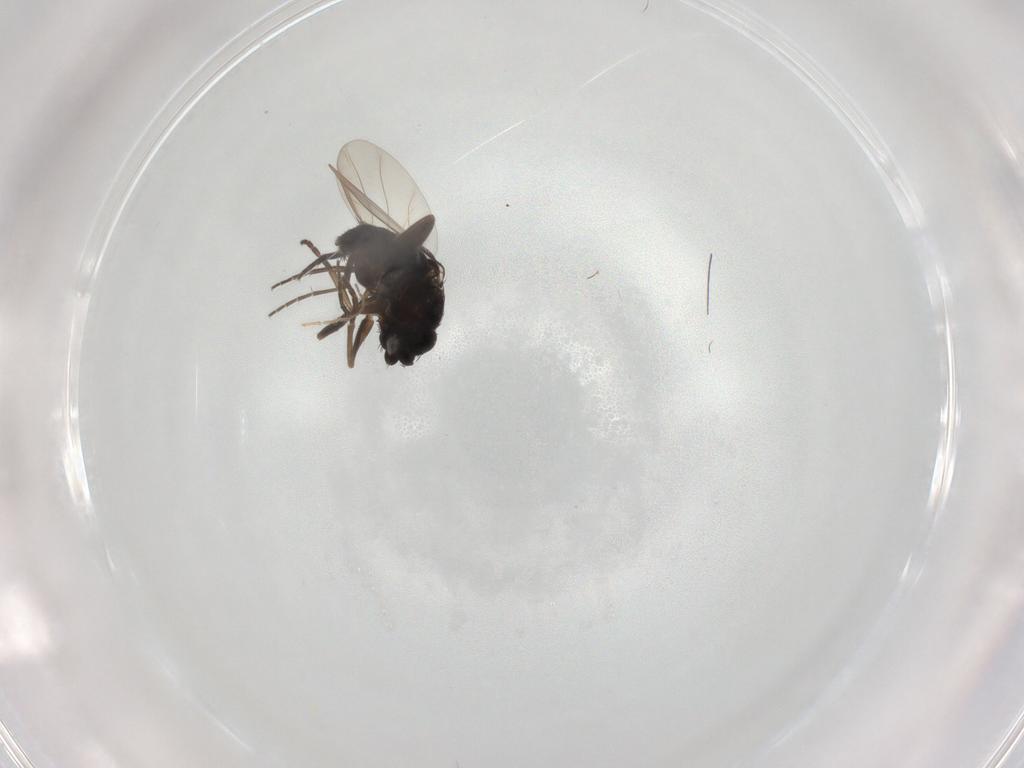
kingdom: Animalia
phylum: Arthropoda
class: Insecta
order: Diptera
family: Phoridae
